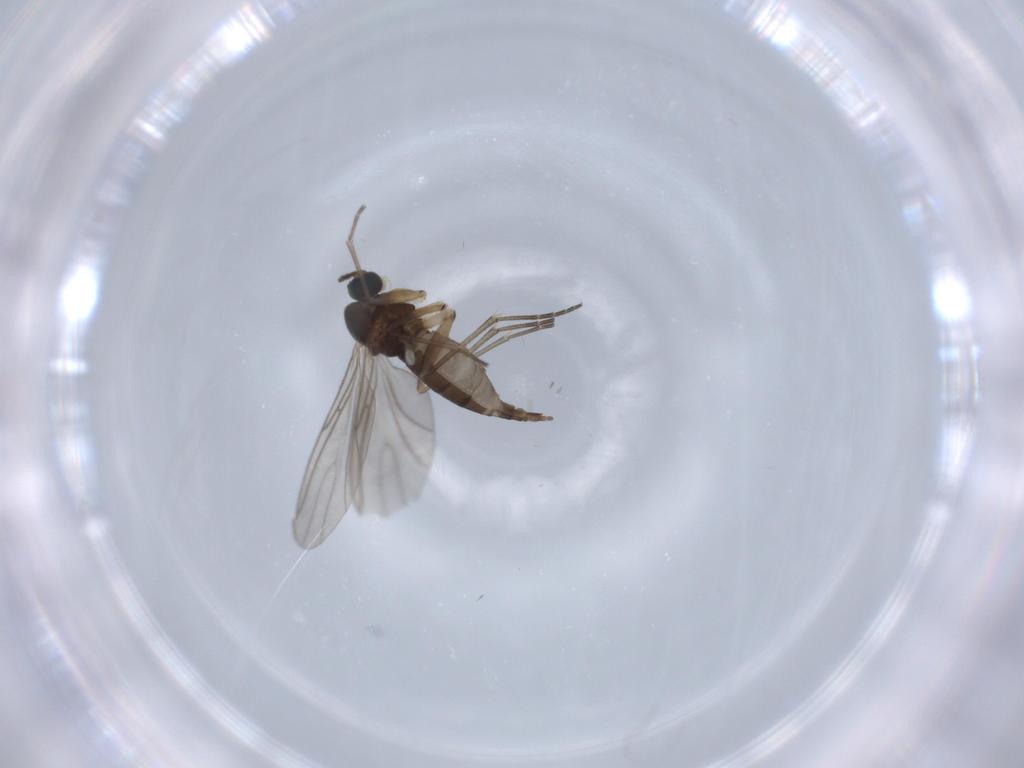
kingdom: Animalia
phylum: Arthropoda
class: Insecta
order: Diptera
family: Sciaridae
